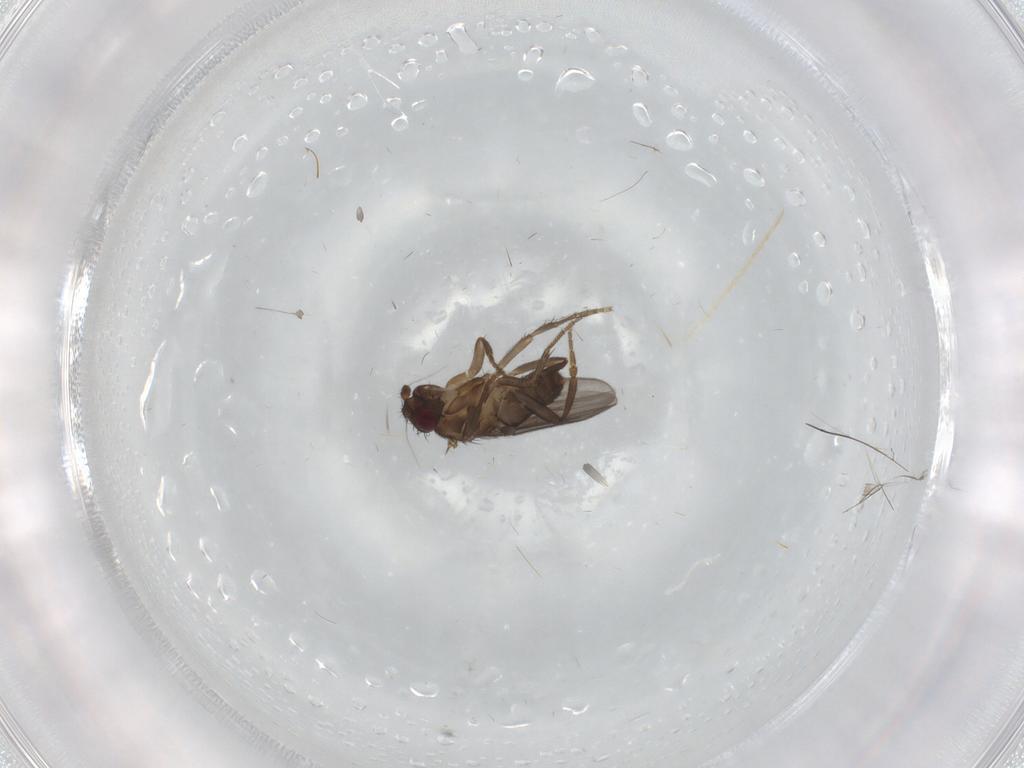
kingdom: Animalia
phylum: Arthropoda
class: Insecta
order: Diptera
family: Sphaeroceridae
